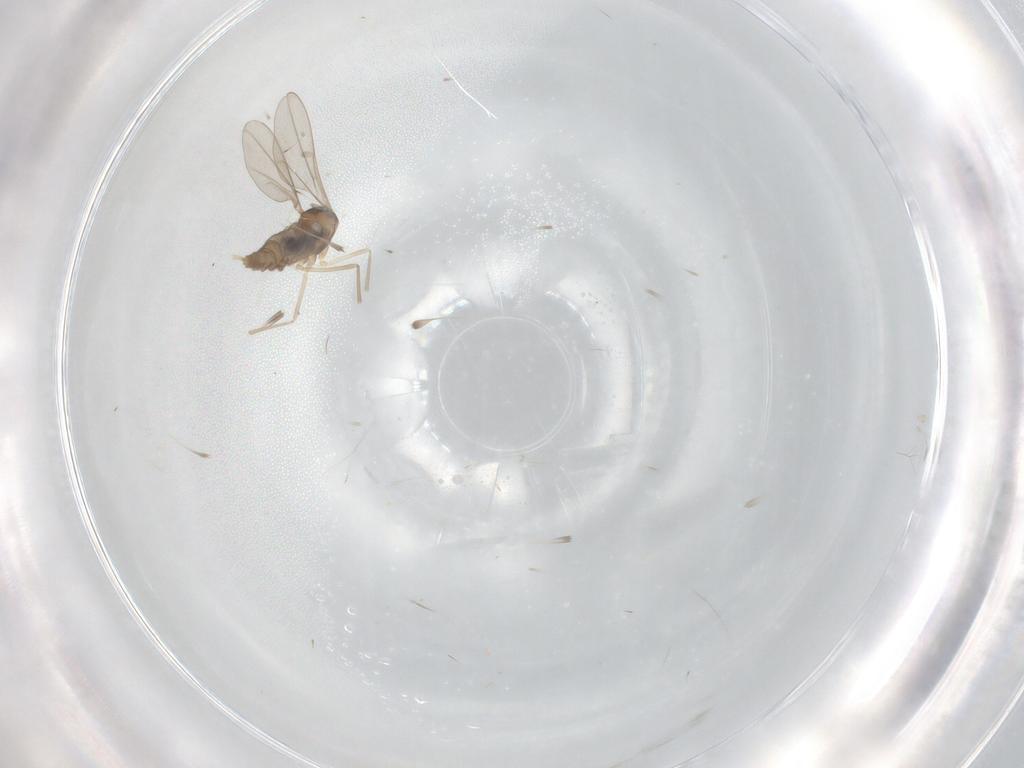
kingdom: Animalia
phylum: Arthropoda
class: Insecta
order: Diptera
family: Cecidomyiidae
